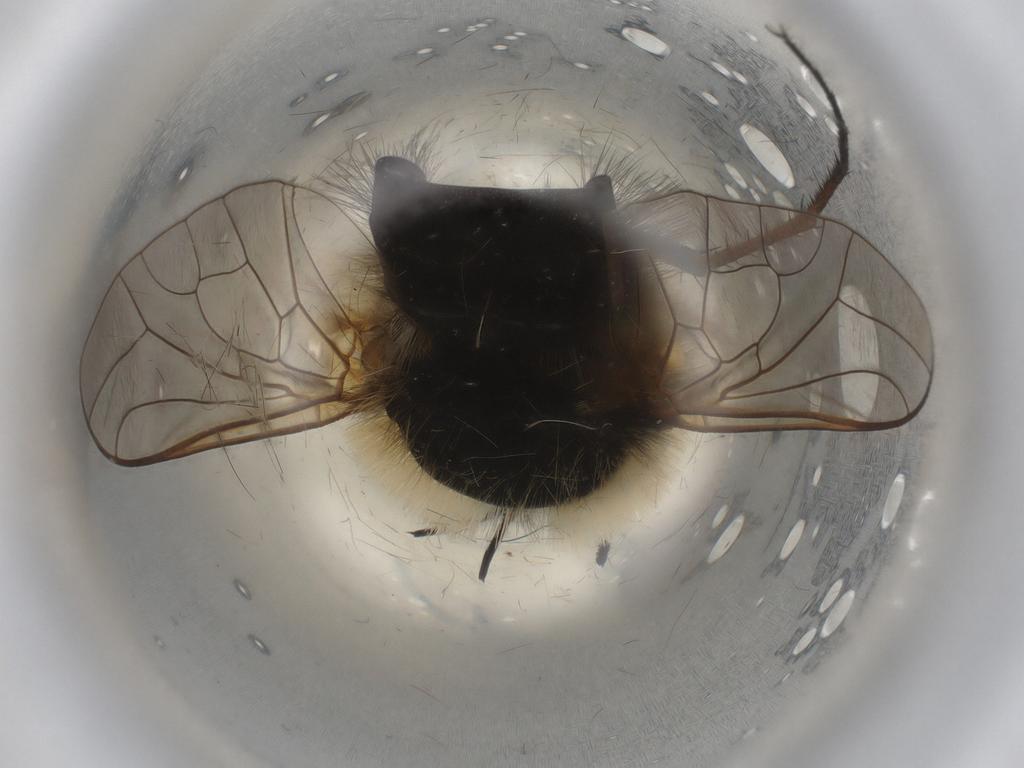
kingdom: Animalia
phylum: Arthropoda
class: Insecta
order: Diptera
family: Bombyliidae
